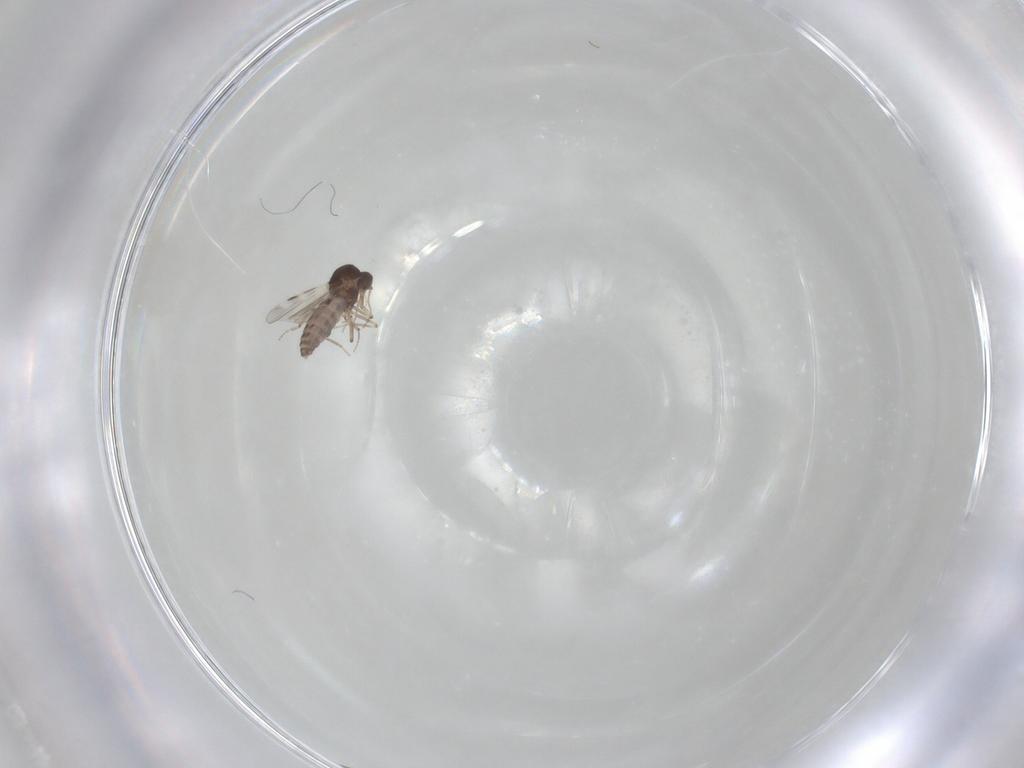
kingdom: Animalia
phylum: Arthropoda
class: Insecta
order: Diptera
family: Cecidomyiidae
